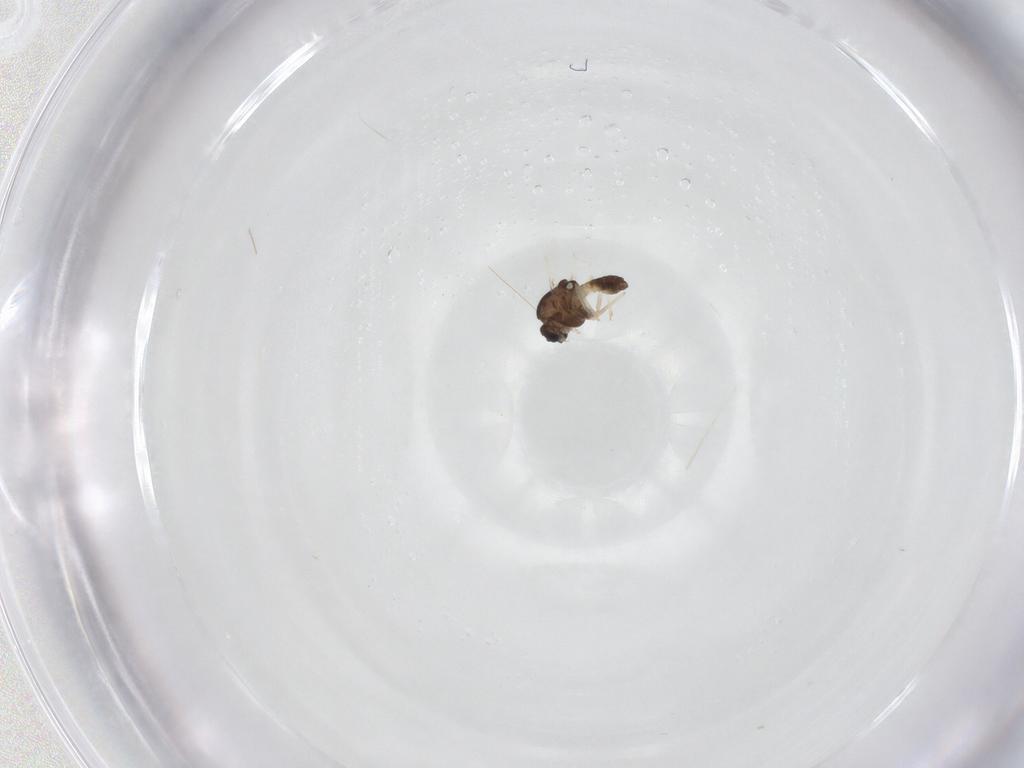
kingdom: Animalia
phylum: Arthropoda
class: Insecta
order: Diptera
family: Chironomidae
